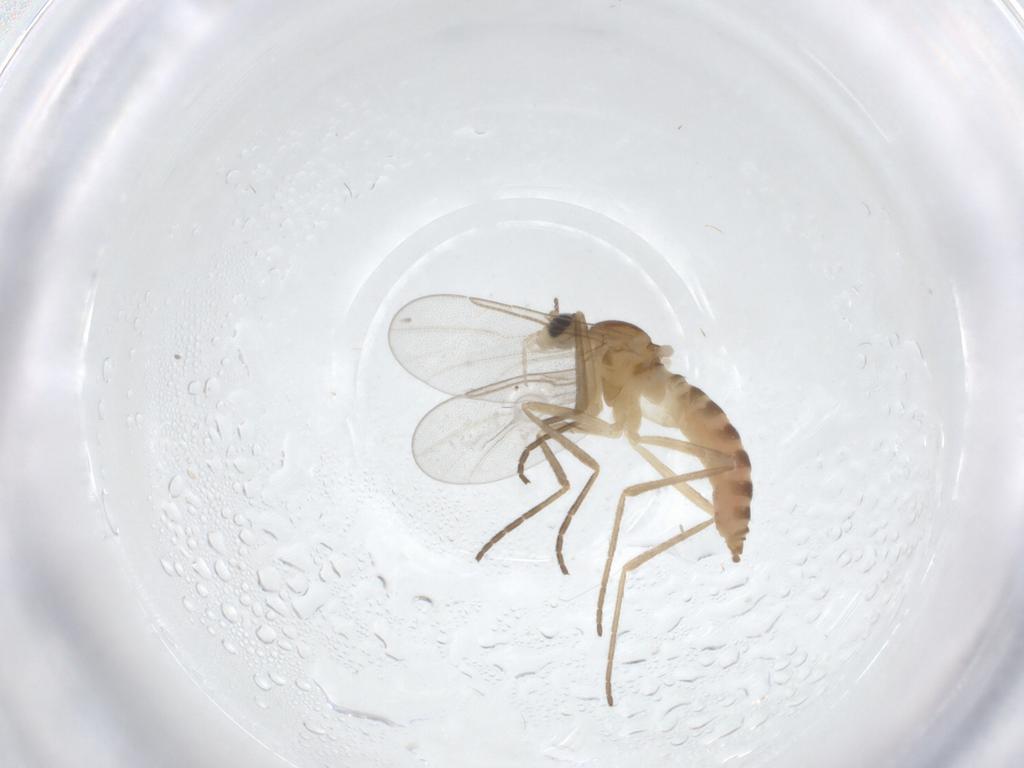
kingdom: Animalia
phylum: Arthropoda
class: Insecta
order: Diptera
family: Cecidomyiidae
